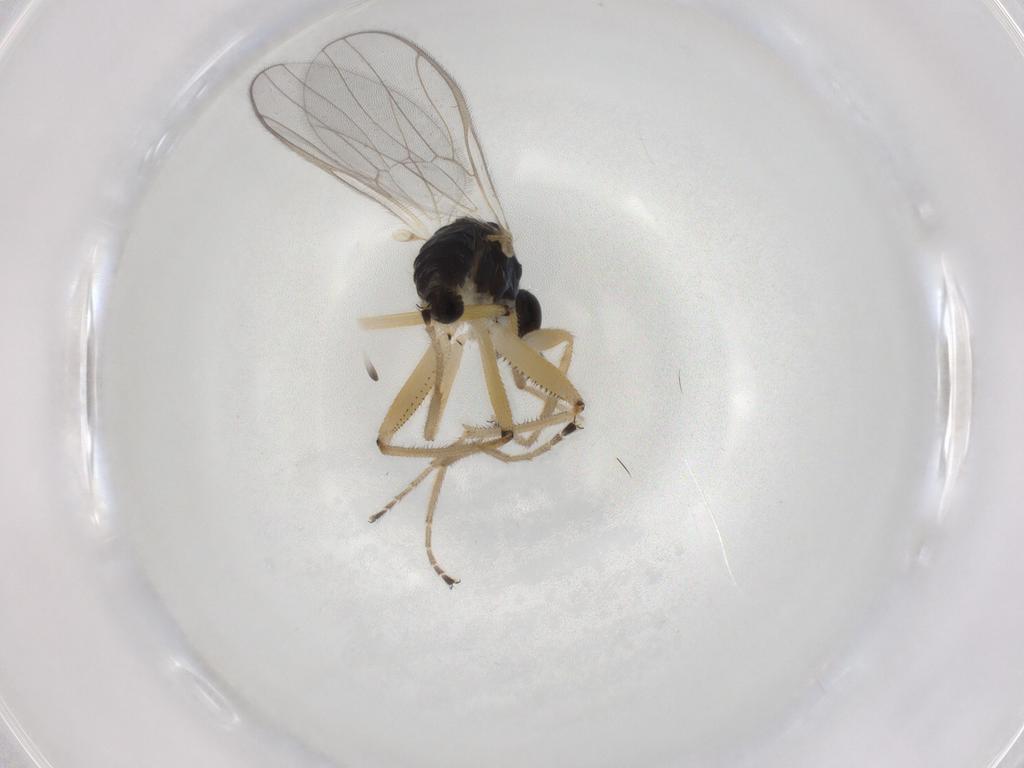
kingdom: Animalia
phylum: Arthropoda
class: Insecta
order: Diptera
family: Hybotidae
